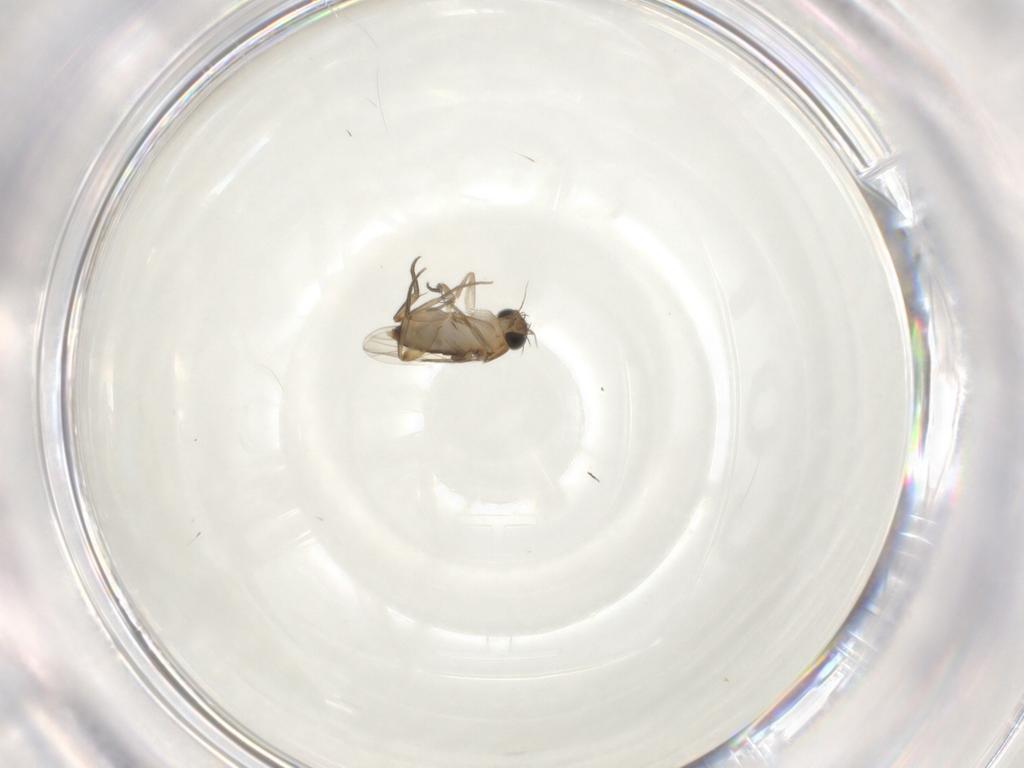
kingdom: Animalia
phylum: Arthropoda
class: Insecta
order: Diptera
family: Phoridae
